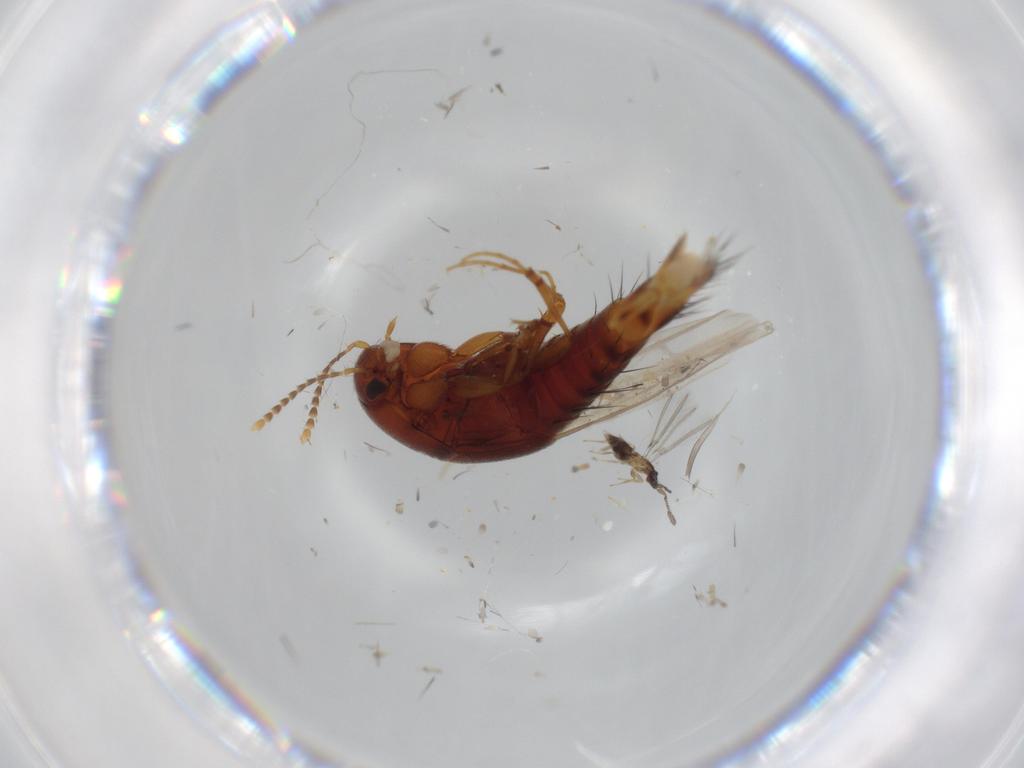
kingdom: Animalia
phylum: Arthropoda
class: Insecta
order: Coleoptera
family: Staphylinidae
